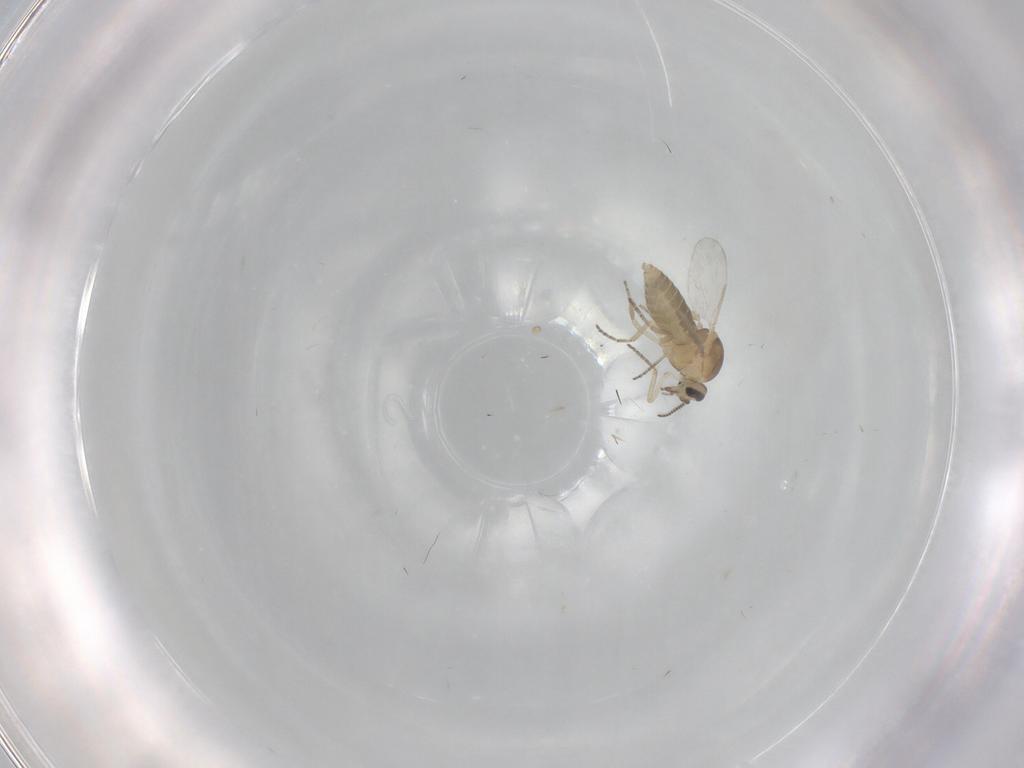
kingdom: Animalia
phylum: Arthropoda
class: Insecta
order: Diptera
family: Ceratopogonidae
